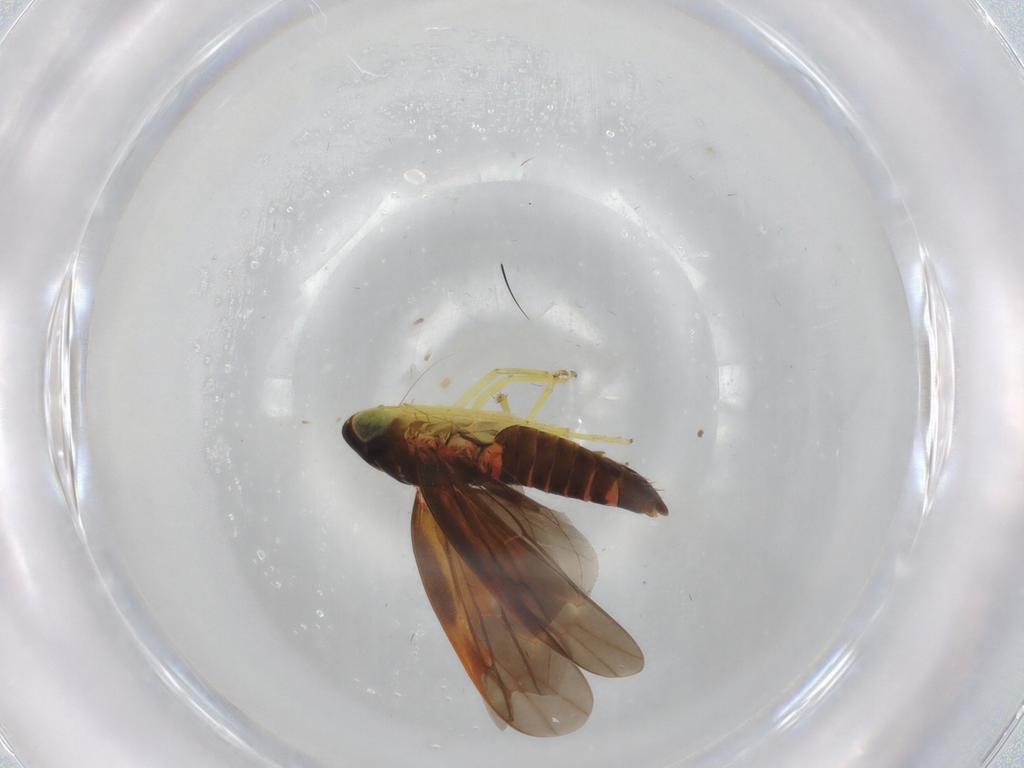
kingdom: Animalia
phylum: Arthropoda
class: Insecta
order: Hemiptera
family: Cicadellidae
